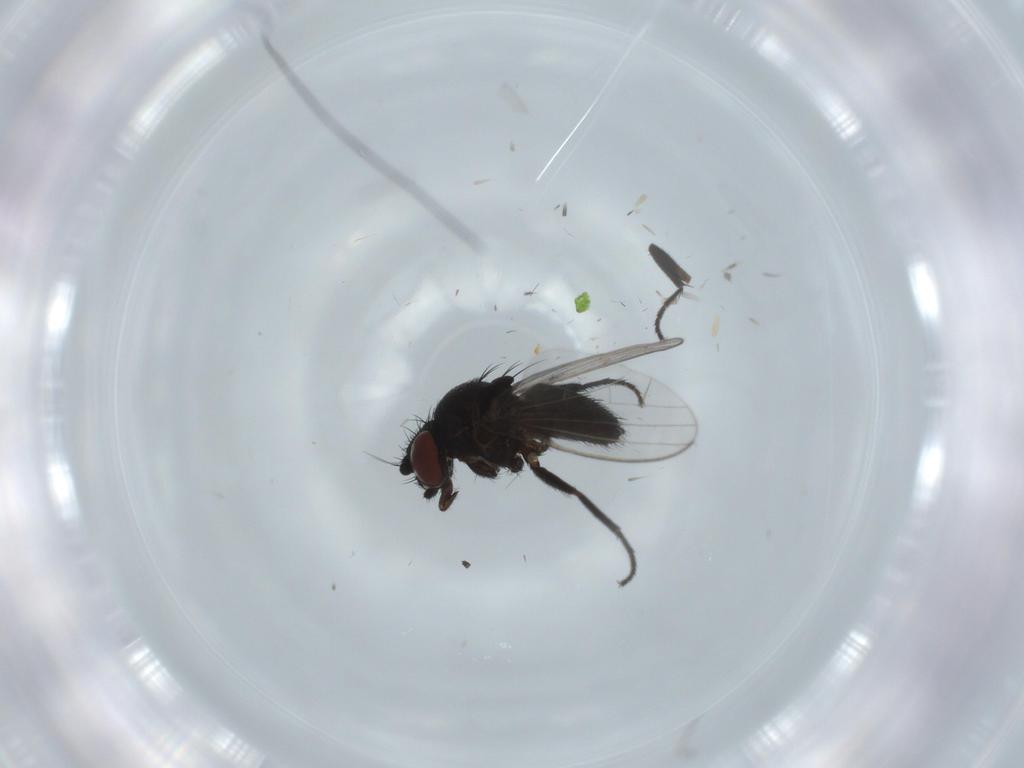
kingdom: Animalia
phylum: Arthropoda
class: Insecta
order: Diptera
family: Milichiidae
